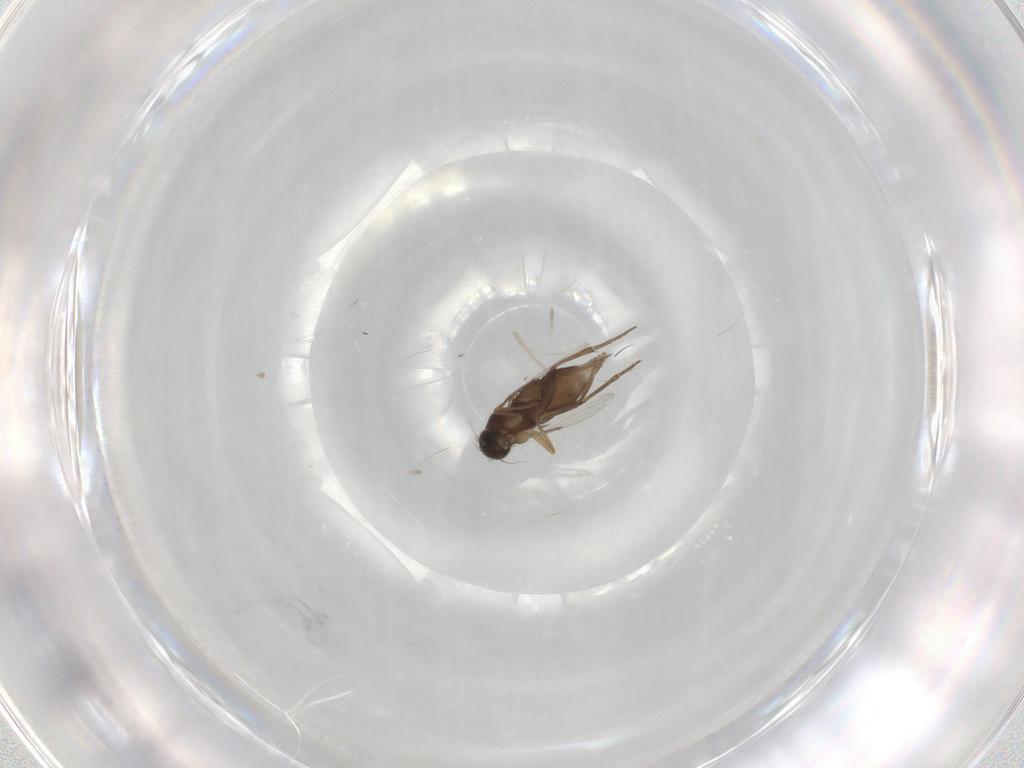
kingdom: Animalia
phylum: Arthropoda
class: Insecta
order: Diptera
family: Phoridae
